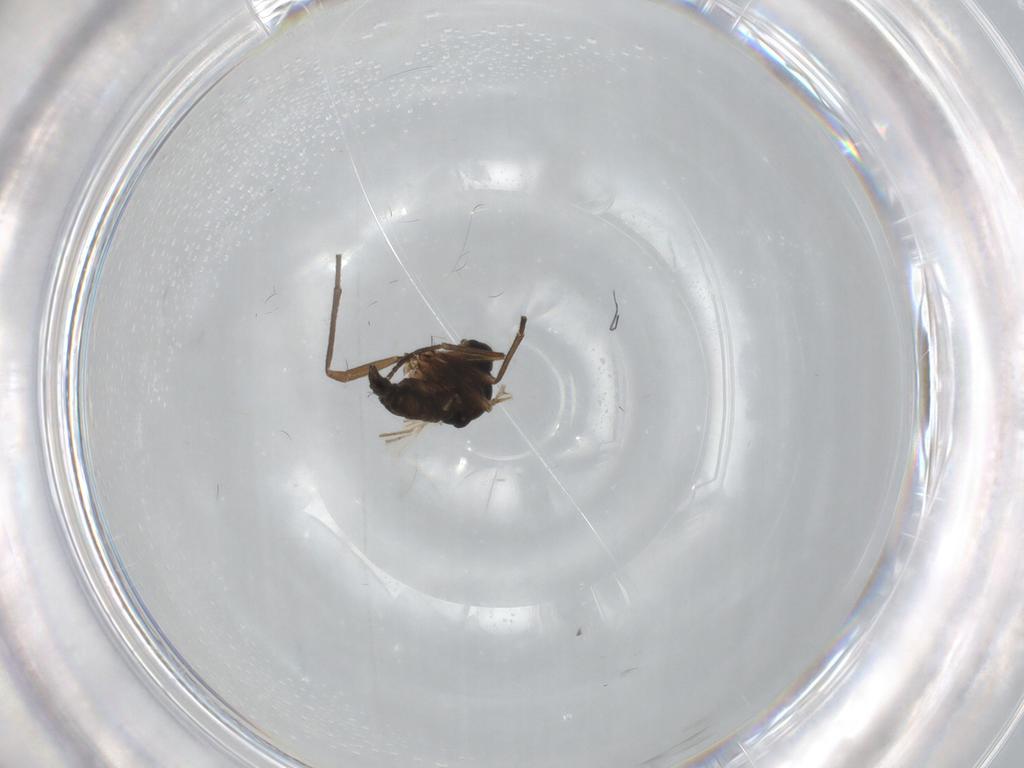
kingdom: Animalia
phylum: Arthropoda
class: Insecta
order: Diptera
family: Sciaridae
